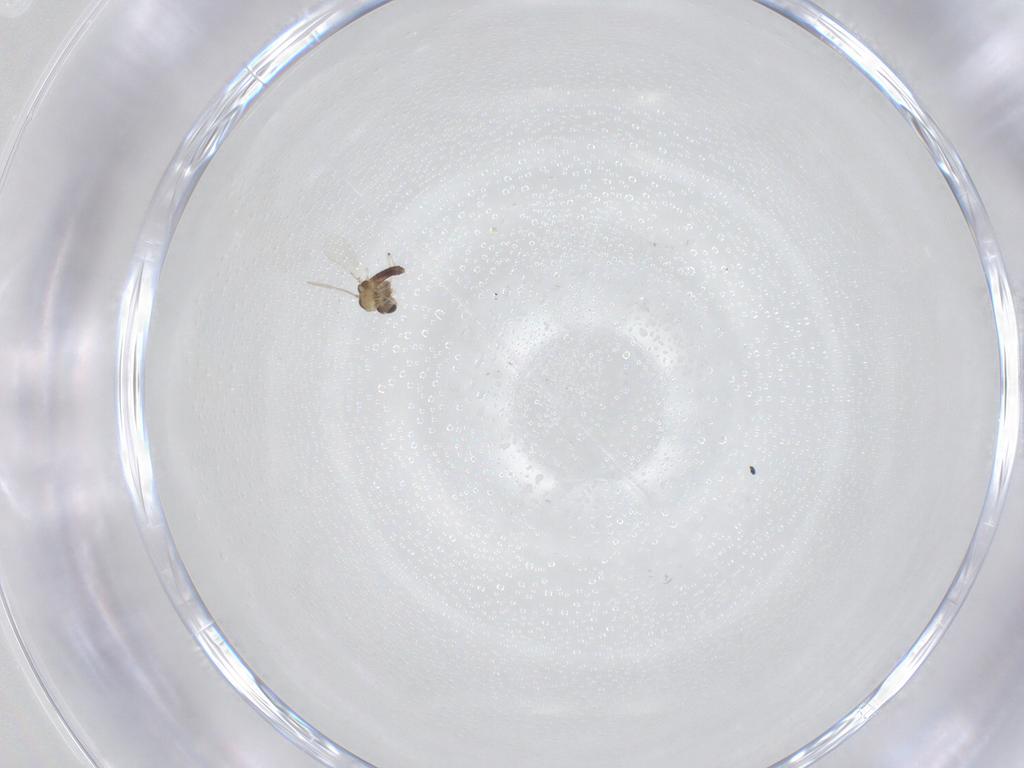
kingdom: Animalia
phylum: Arthropoda
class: Insecta
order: Diptera
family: Chironomidae
